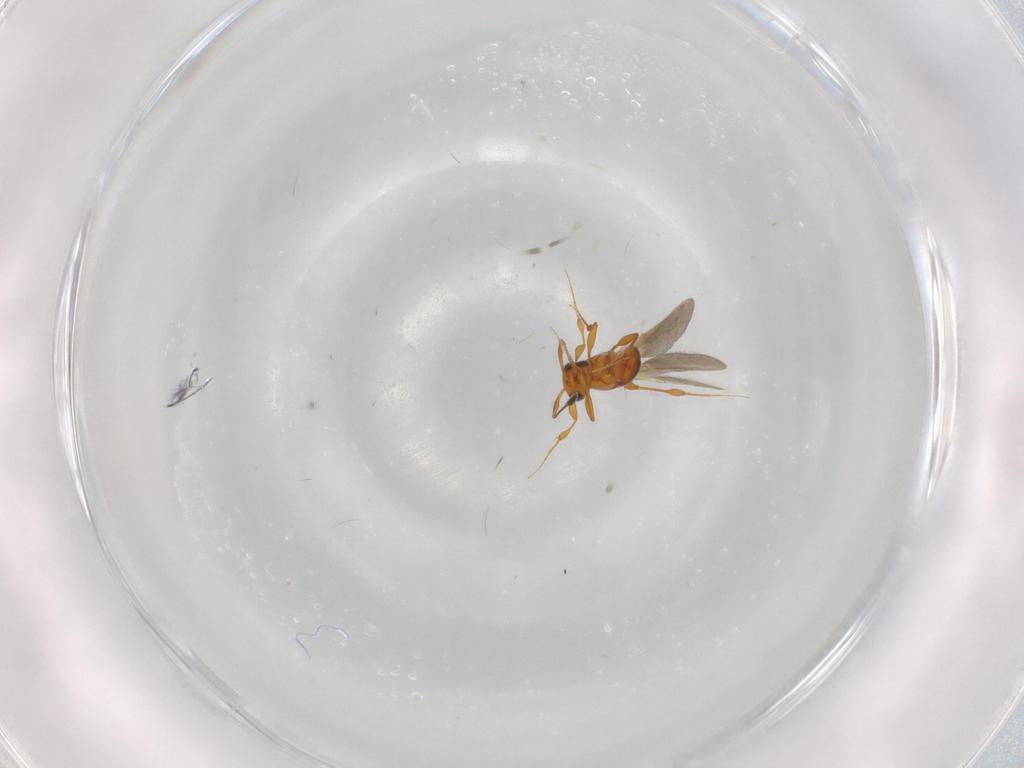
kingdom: Animalia
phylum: Arthropoda
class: Insecta
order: Hymenoptera
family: Platygastridae
